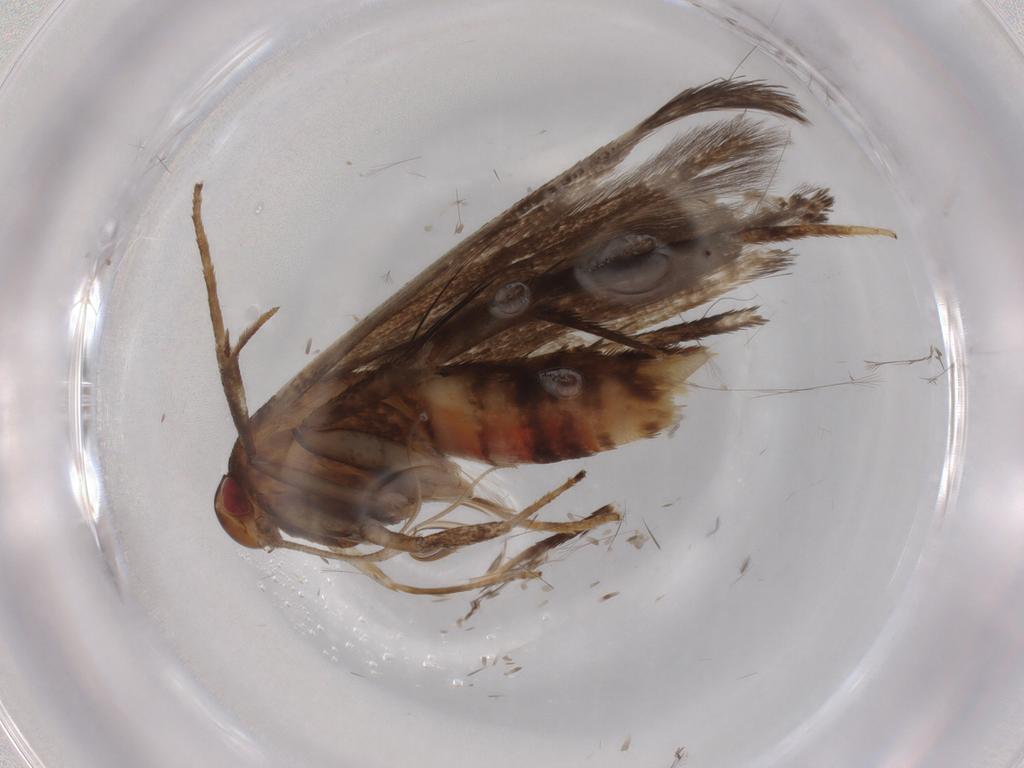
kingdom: Animalia
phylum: Arthropoda
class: Insecta
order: Lepidoptera
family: Cosmopterigidae
